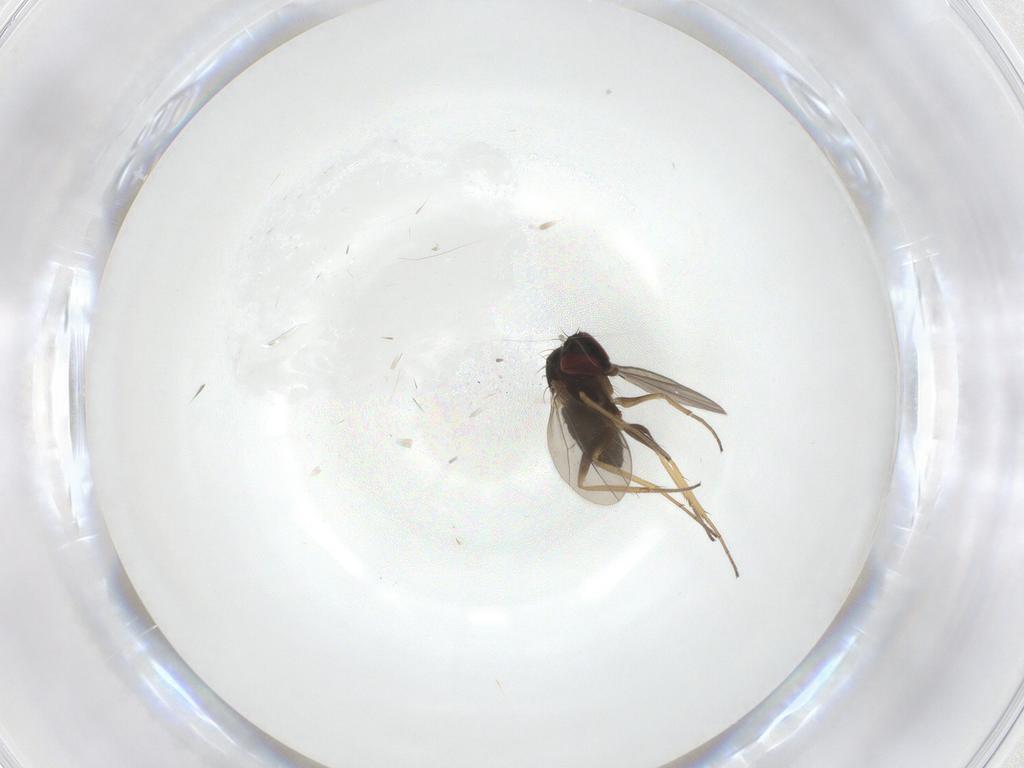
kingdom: Animalia
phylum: Arthropoda
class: Insecta
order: Diptera
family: Dolichopodidae
